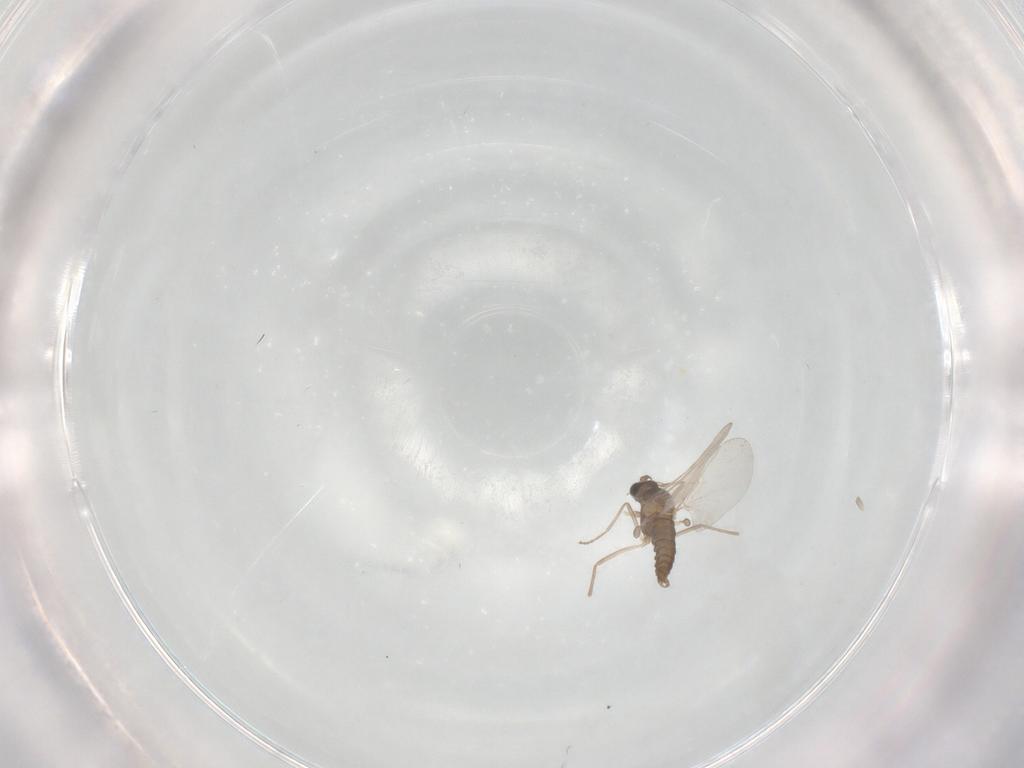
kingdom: Animalia
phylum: Arthropoda
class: Insecta
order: Diptera
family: Cecidomyiidae
